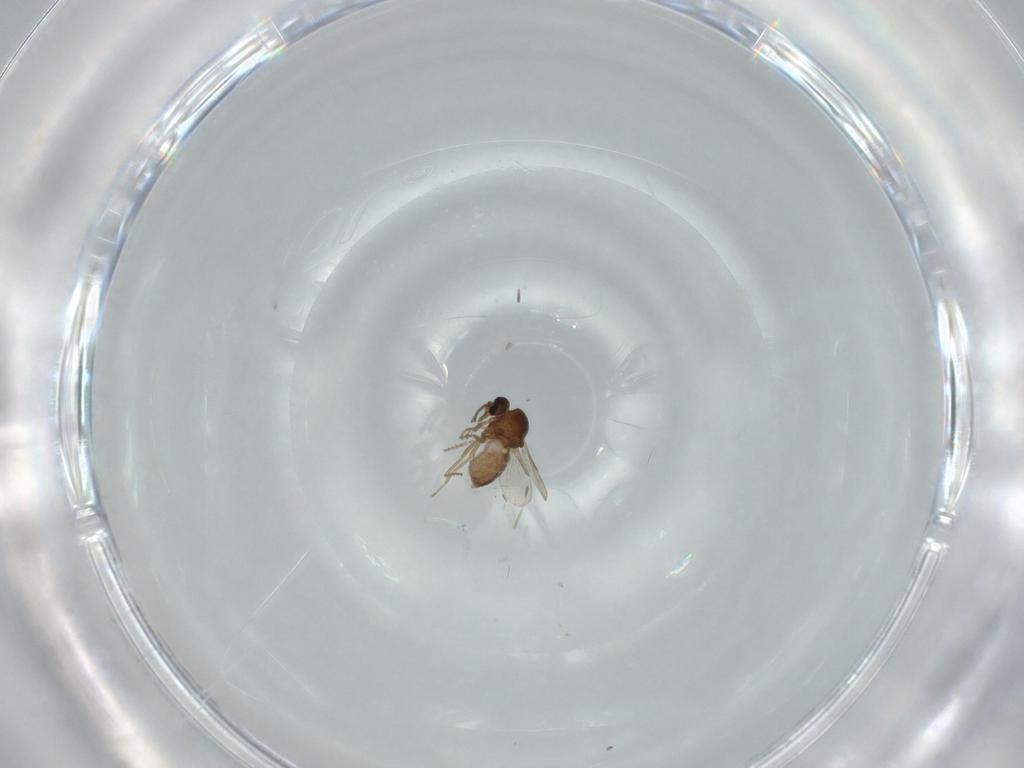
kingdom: Animalia
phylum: Arthropoda
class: Insecta
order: Diptera
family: Ceratopogonidae
